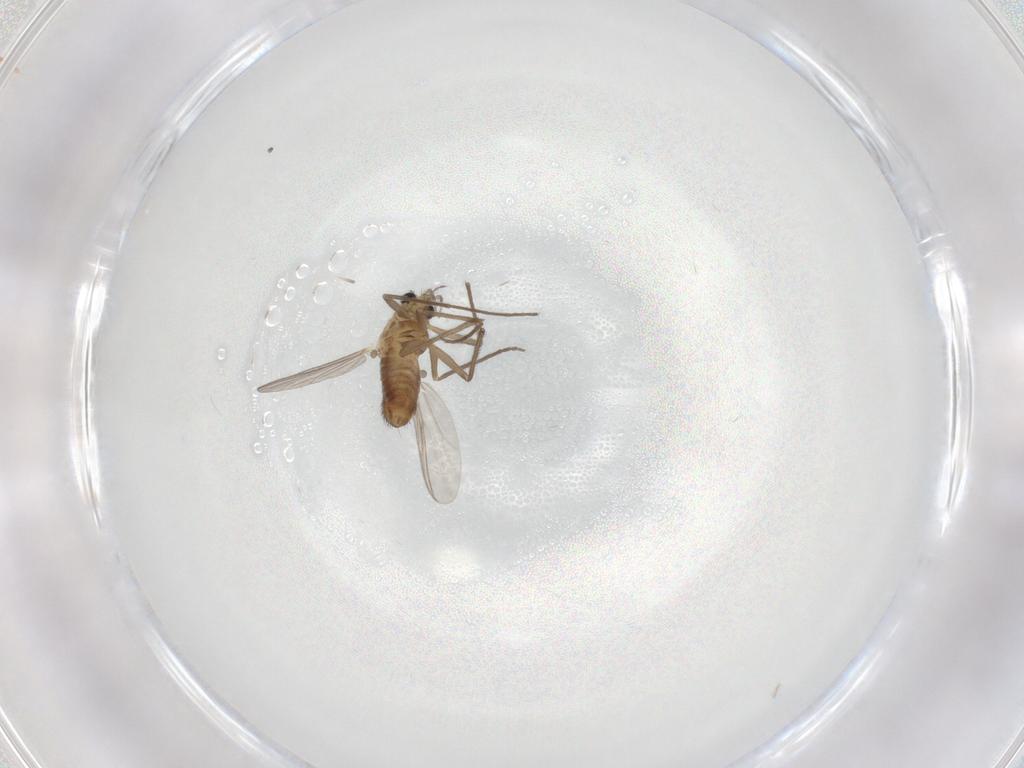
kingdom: Animalia
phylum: Arthropoda
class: Insecta
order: Diptera
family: Chironomidae
